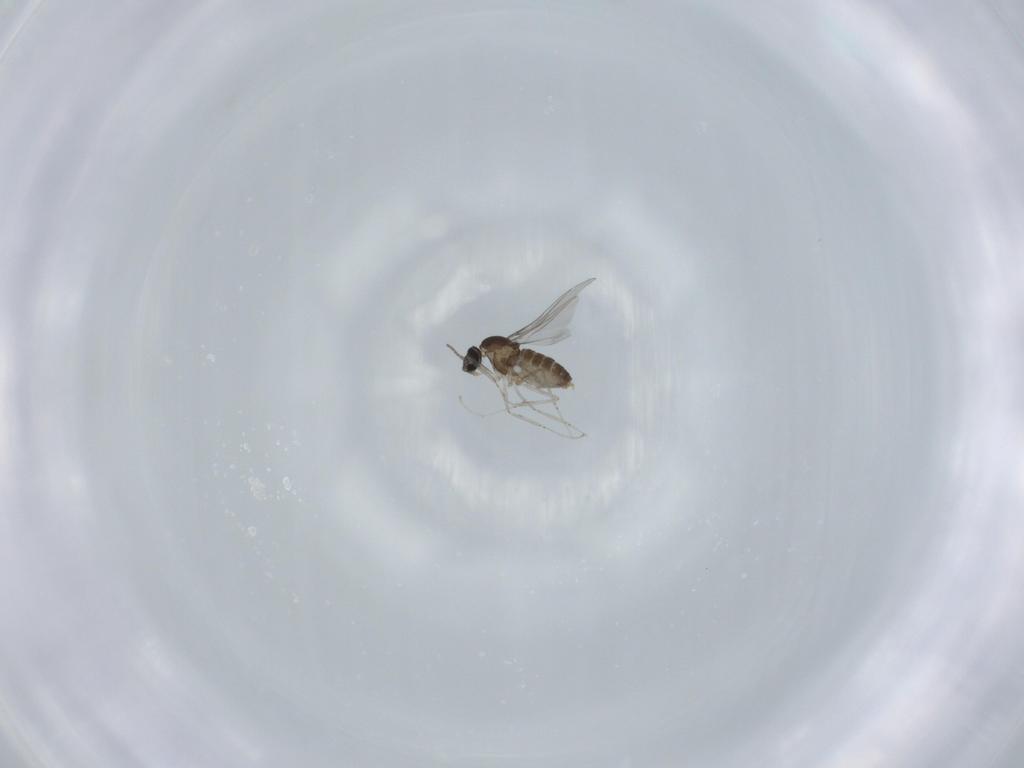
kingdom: Animalia
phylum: Arthropoda
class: Insecta
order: Diptera
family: Cecidomyiidae
